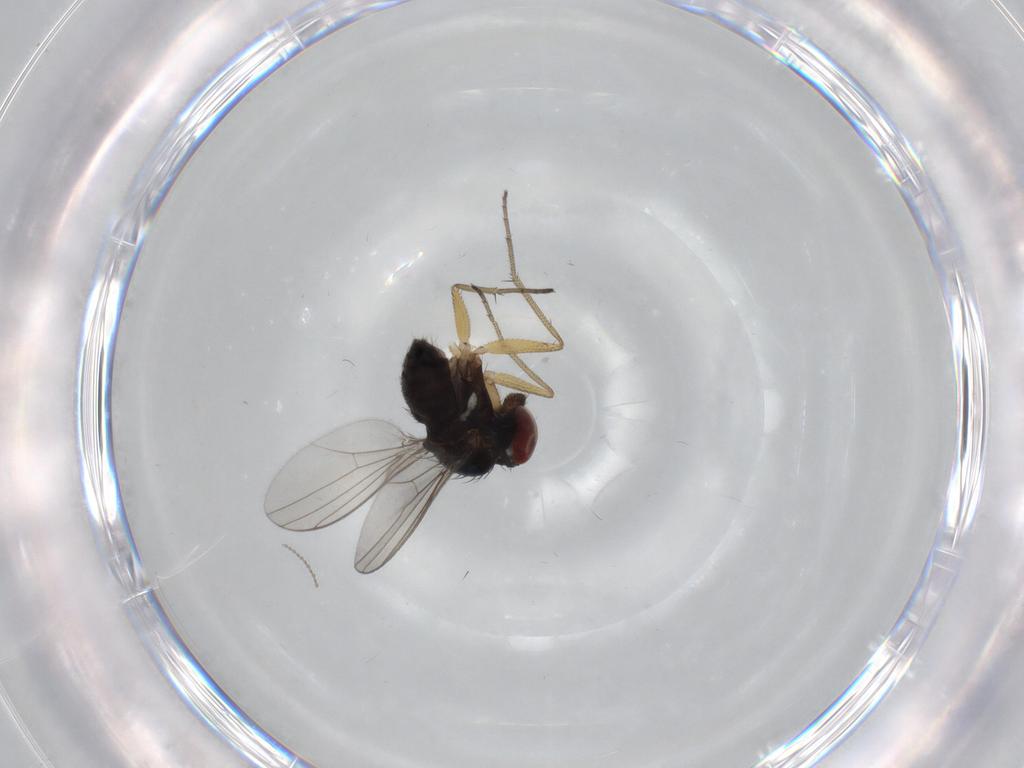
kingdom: Animalia
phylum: Arthropoda
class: Insecta
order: Diptera
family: Dolichopodidae
